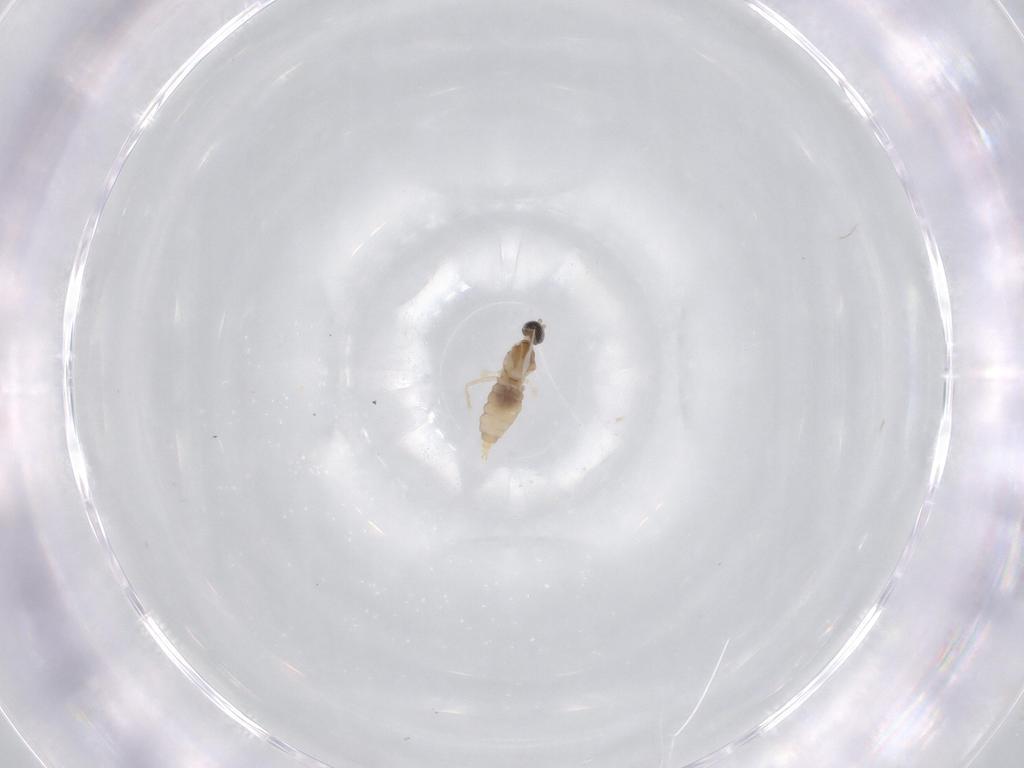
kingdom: Animalia
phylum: Arthropoda
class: Insecta
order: Diptera
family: Cecidomyiidae
